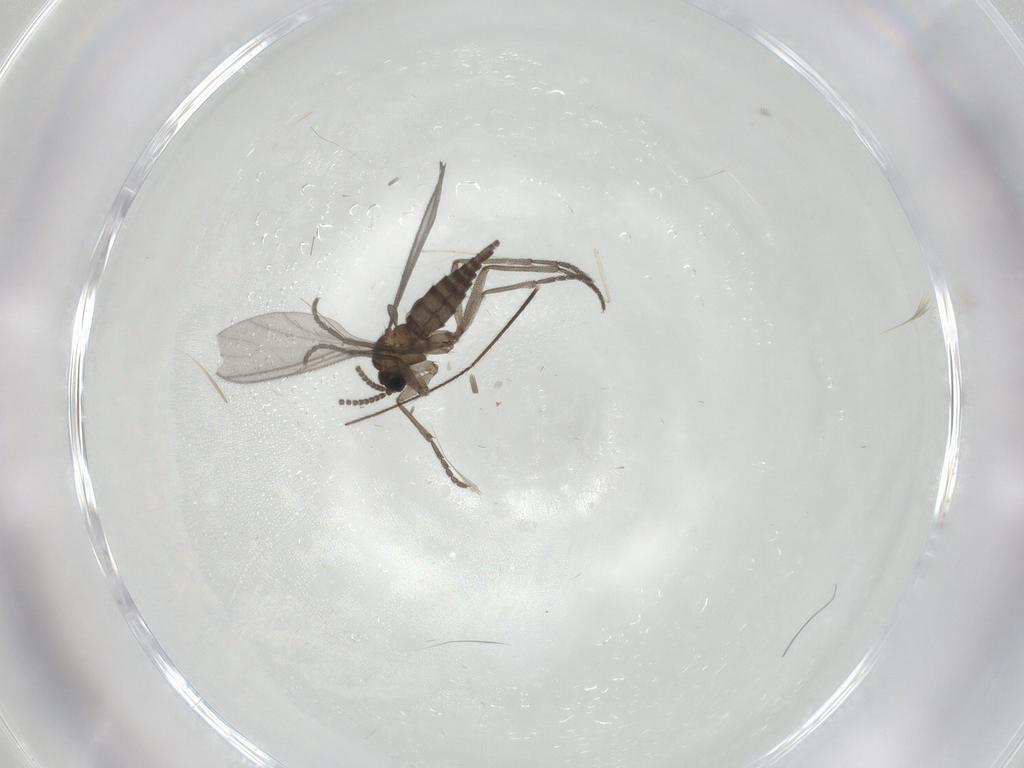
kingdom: Animalia
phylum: Arthropoda
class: Insecta
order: Diptera
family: Sciaridae
